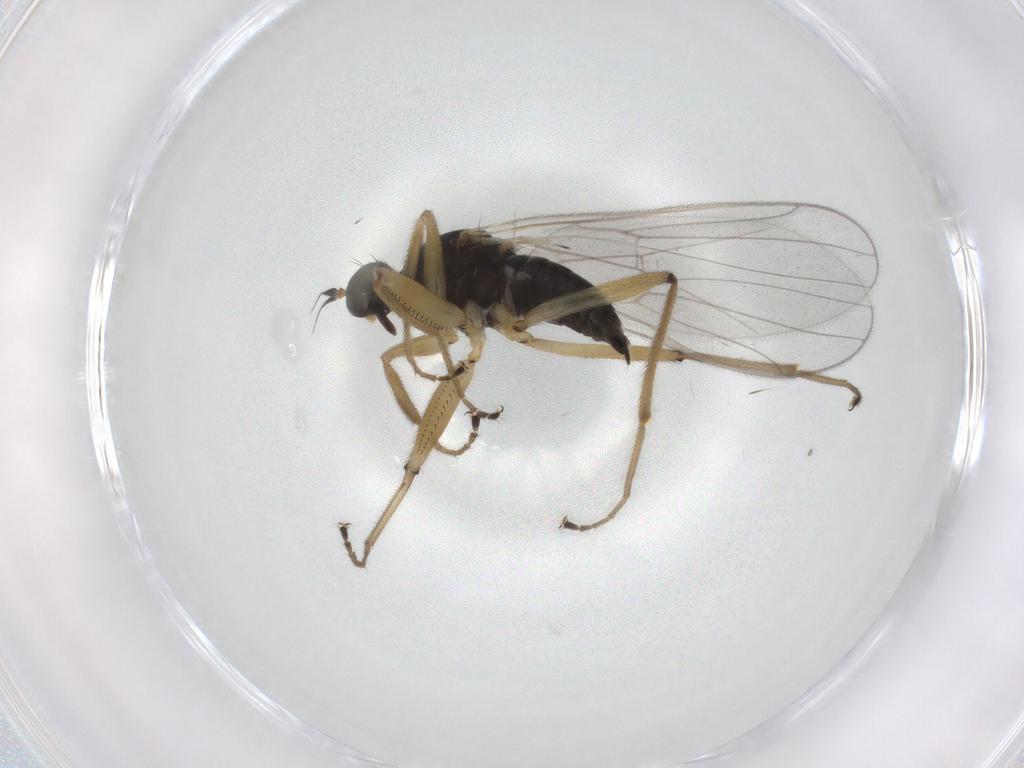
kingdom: Animalia
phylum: Arthropoda
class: Insecta
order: Diptera
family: Hybotidae
